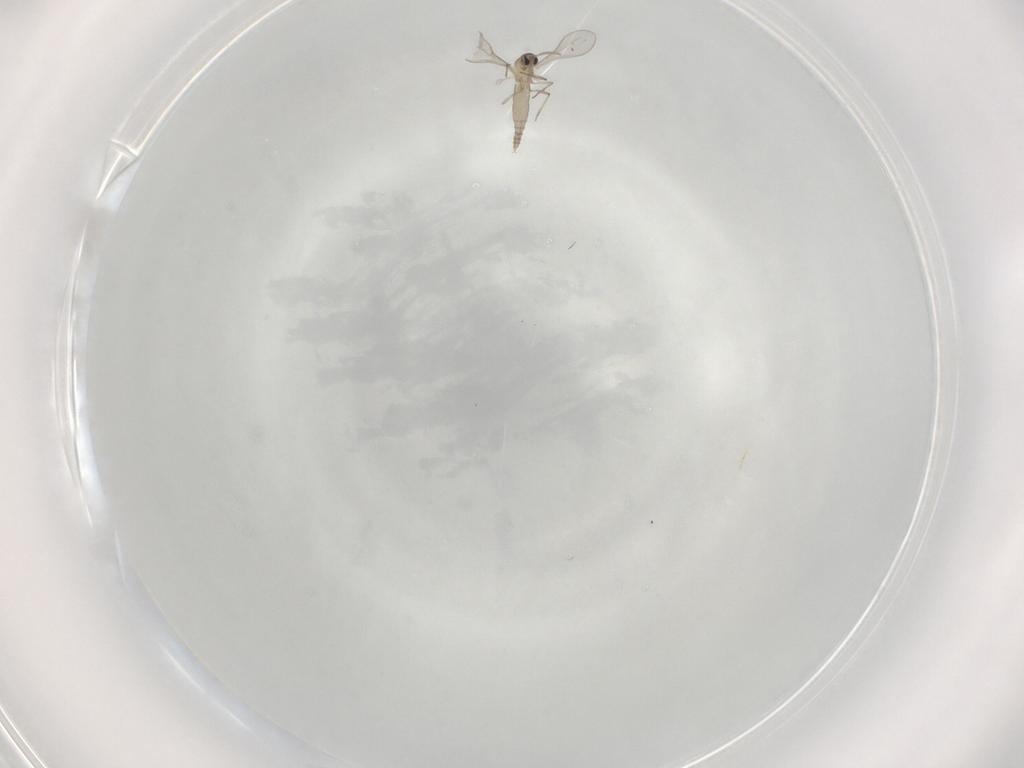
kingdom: Animalia
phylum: Arthropoda
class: Insecta
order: Diptera
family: Cecidomyiidae
